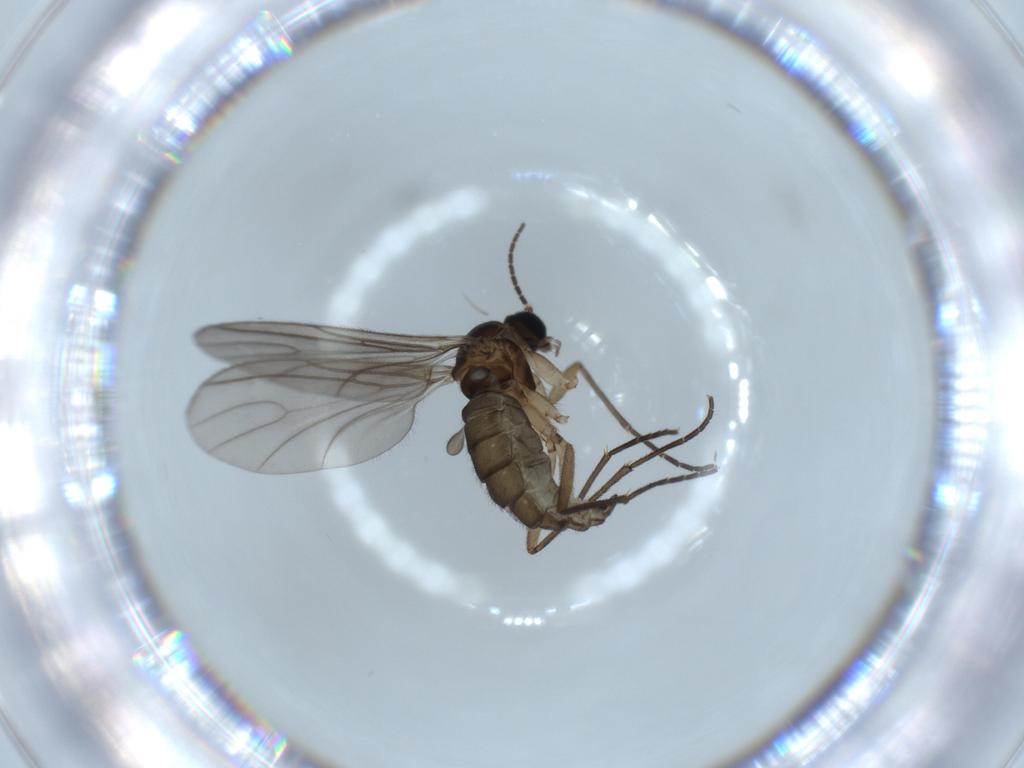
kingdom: Animalia
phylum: Arthropoda
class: Insecta
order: Diptera
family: Sciaridae
